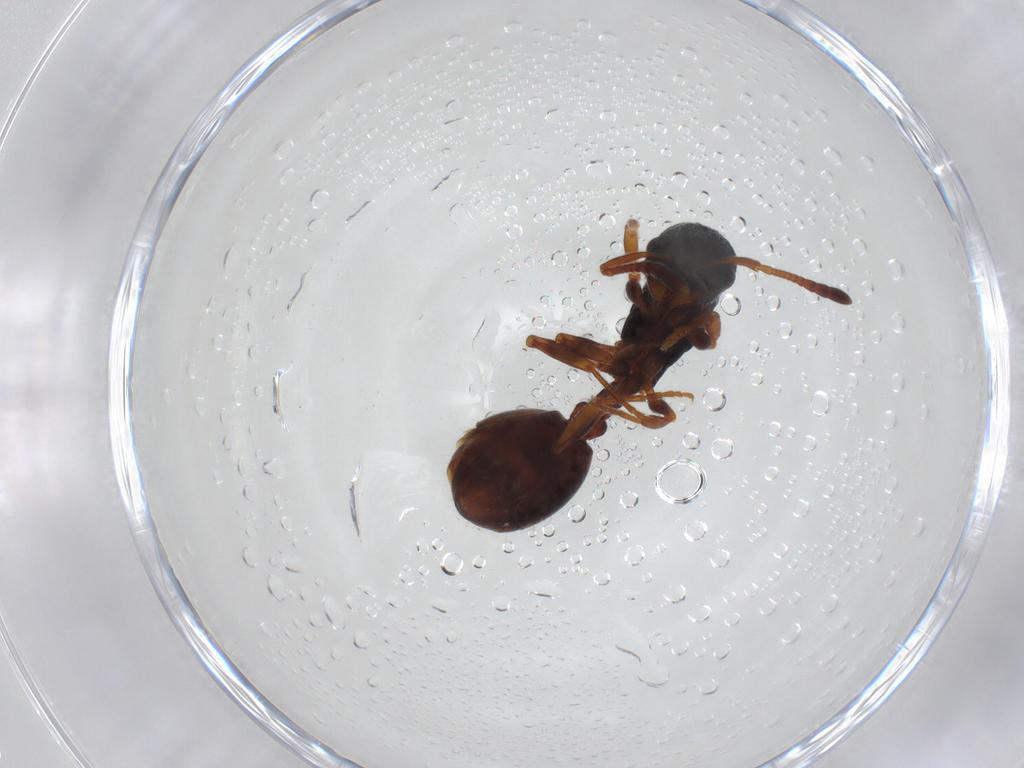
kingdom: Animalia
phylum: Arthropoda
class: Insecta
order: Hymenoptera
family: Formicidae
